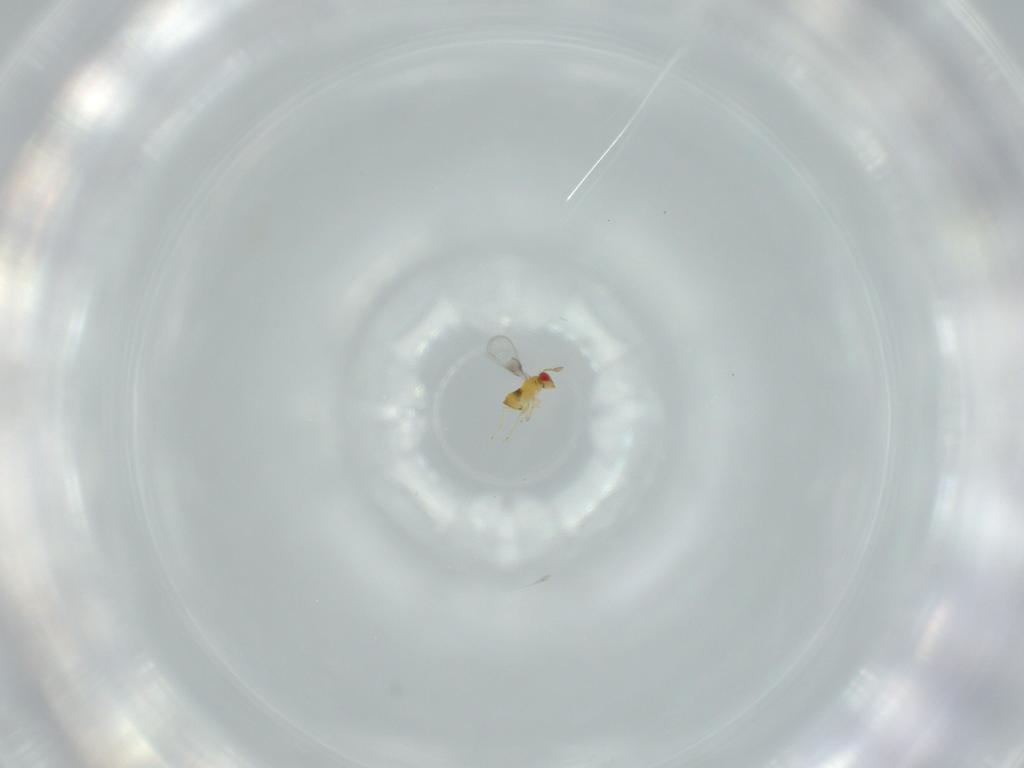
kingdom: Animalia
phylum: Arthropoda
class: Insecta
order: Hymenoptera
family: Trichogrammatidae
